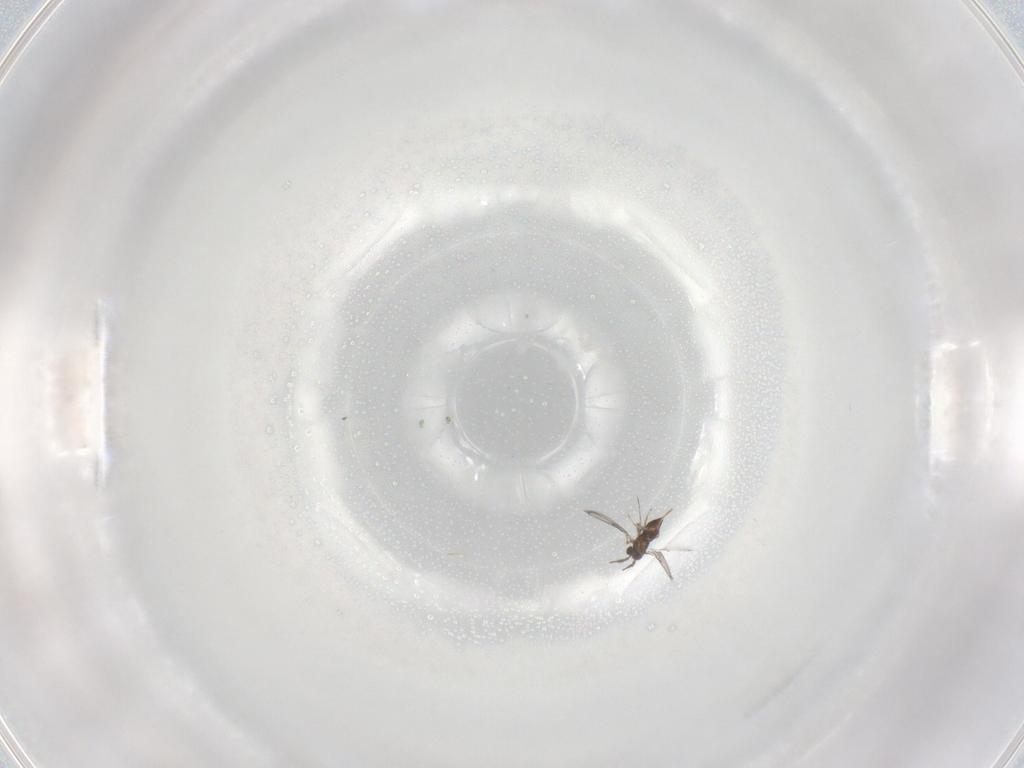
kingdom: Animalia
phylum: Arthropoda
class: Insecta
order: Hymenoptera
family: Trichogrammatidae
